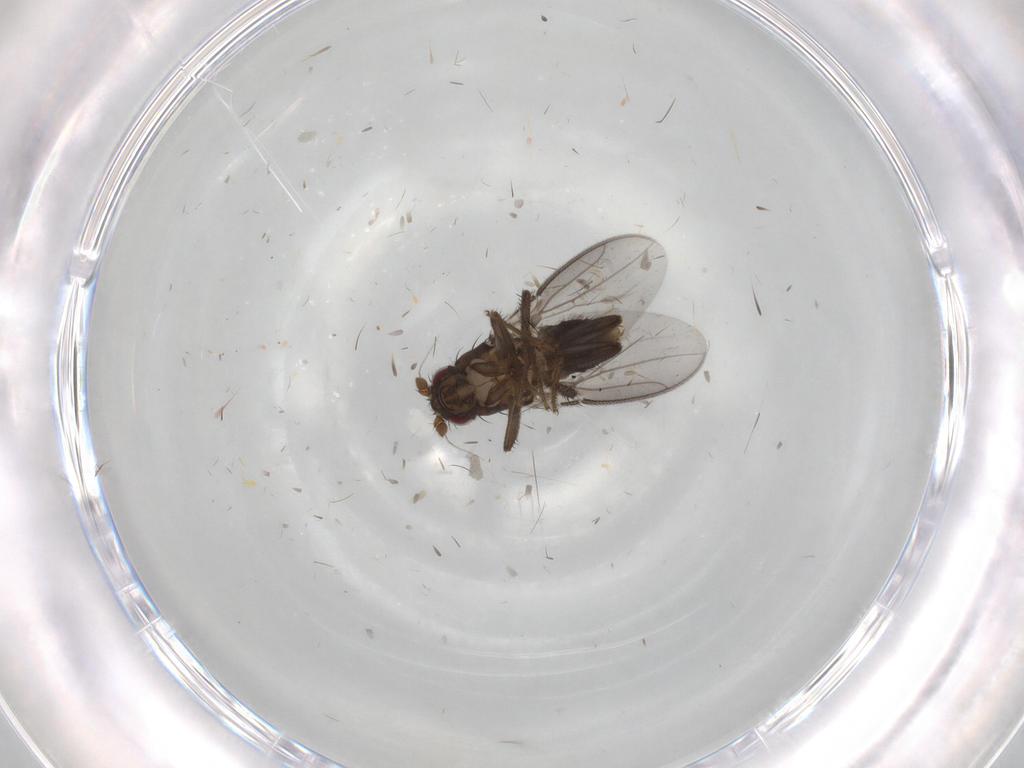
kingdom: Animalia
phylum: Arthropoda
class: Insecta
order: Diptera
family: Sphaeroceridae
